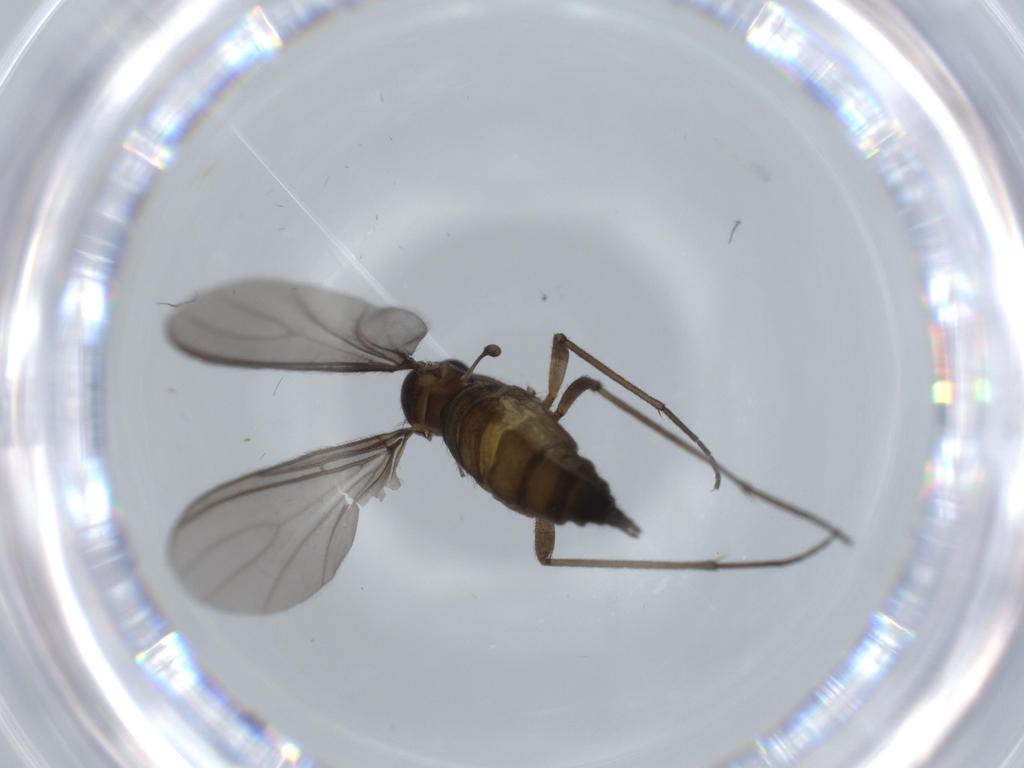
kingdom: Animalia
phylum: Arthropoda
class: Insecta
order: Diptera
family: Sciaridae
